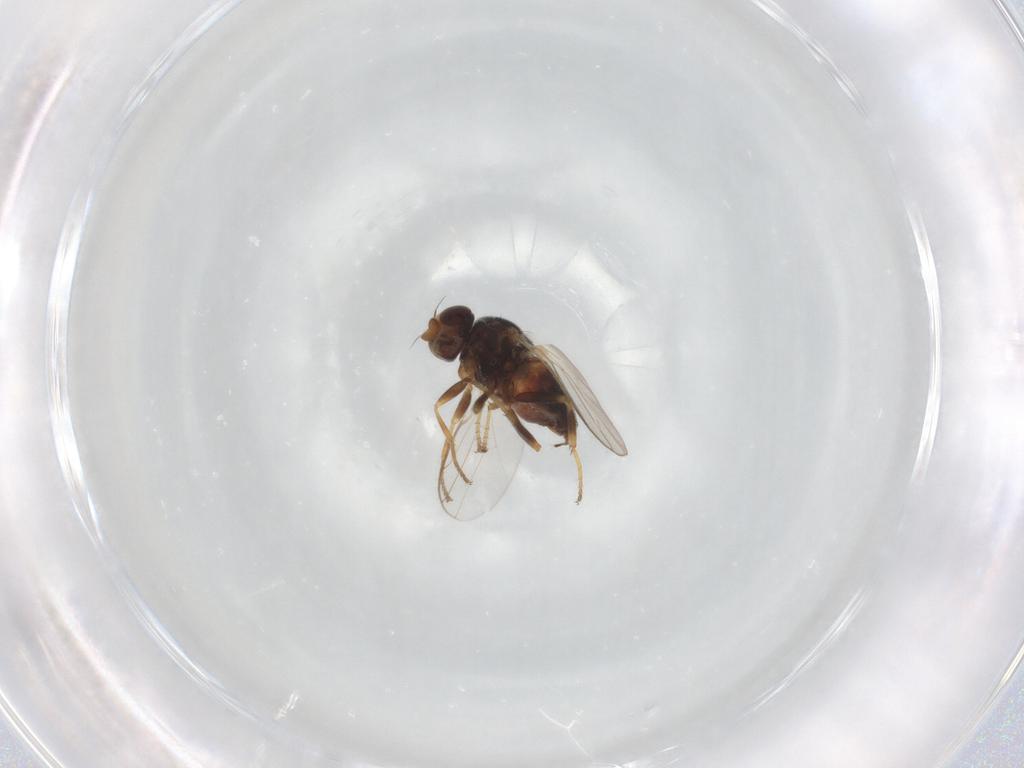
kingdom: Animalia
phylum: Arthropoda
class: Insecta
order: Diptera
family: Chloropidae
